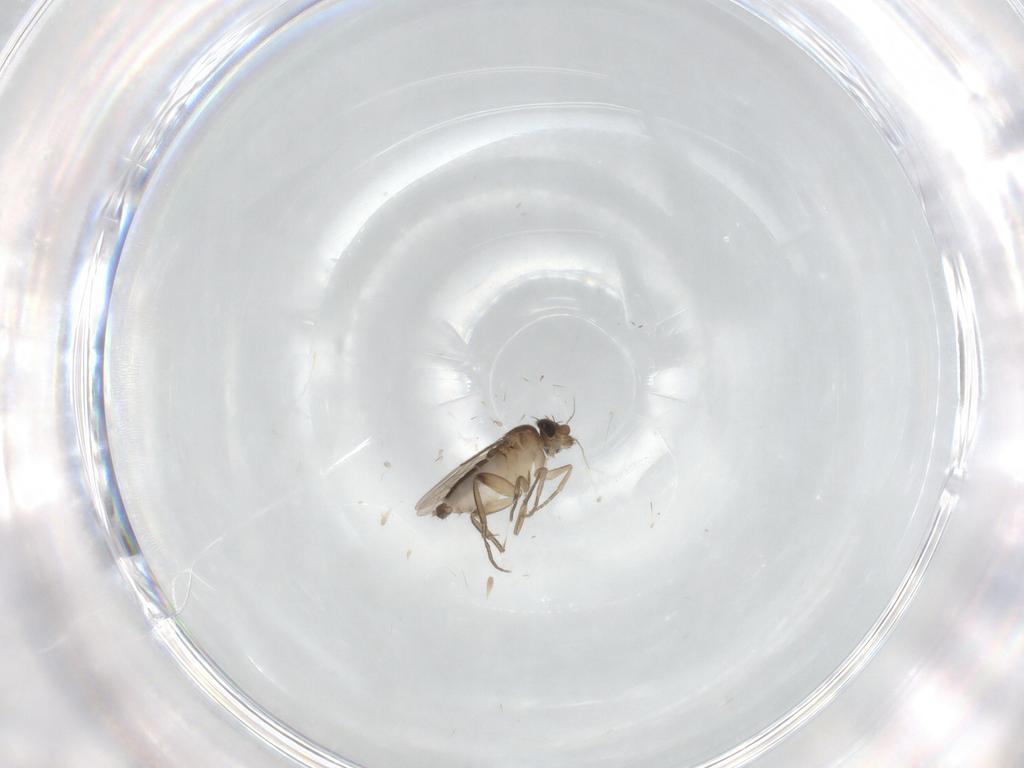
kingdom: Animalia
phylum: Arthropoda
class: Insecta
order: Diptera
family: Phoridae
